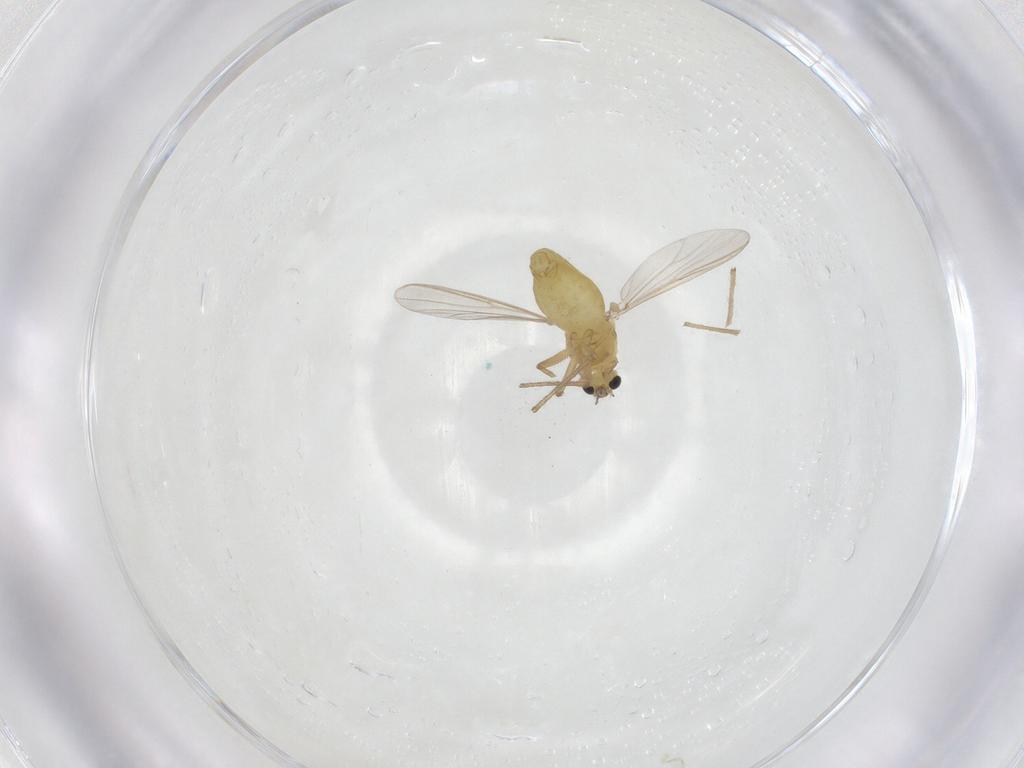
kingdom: Animalia
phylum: Arthropoda
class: Insecta
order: Diptera
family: Chironomidae
